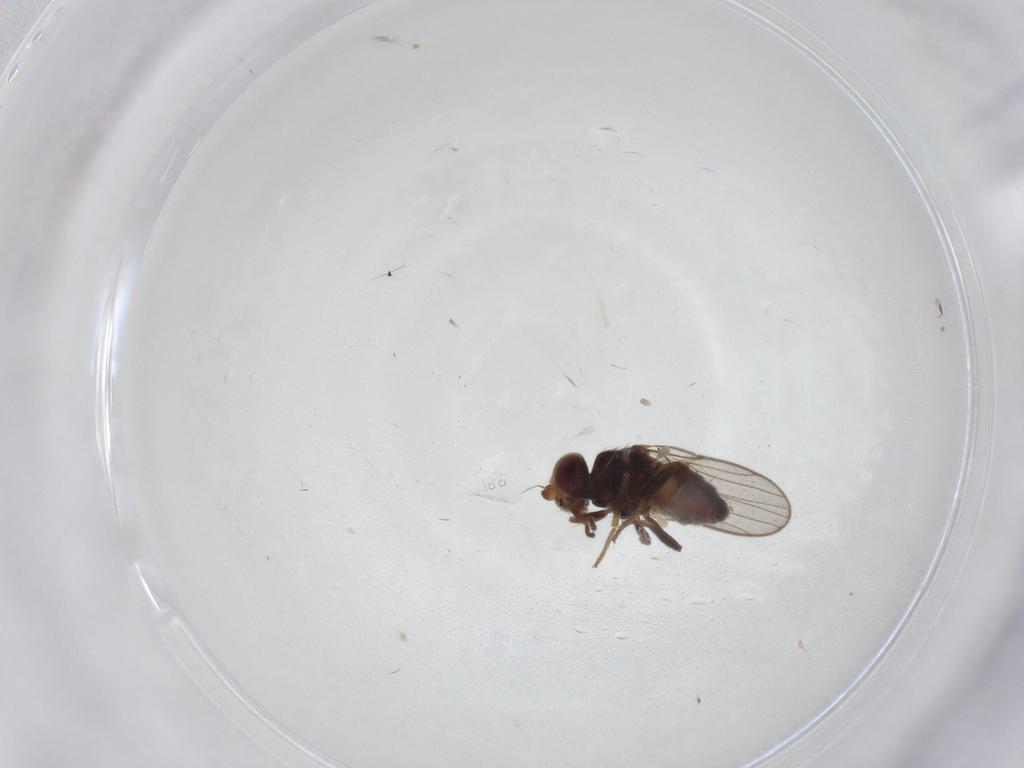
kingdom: Animalia
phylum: Arthropoda
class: Insecta
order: Diptera
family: Chloropidae
